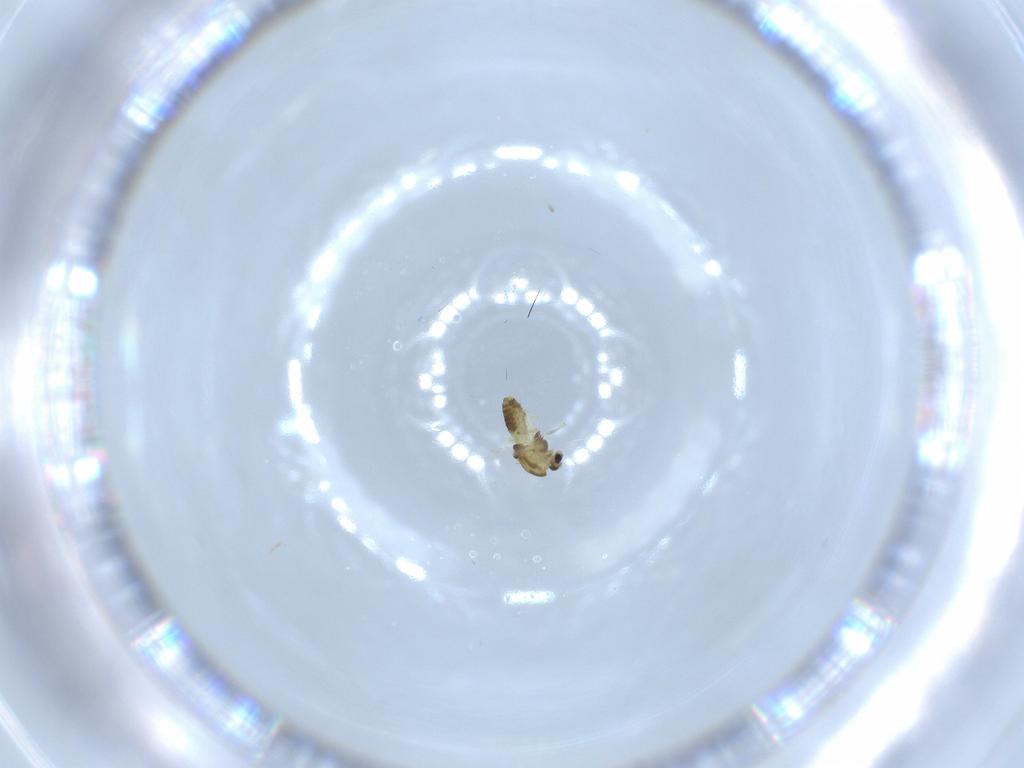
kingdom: Animalia
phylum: Arthropoda
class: Insecta
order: Diptera
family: Chironomidae
